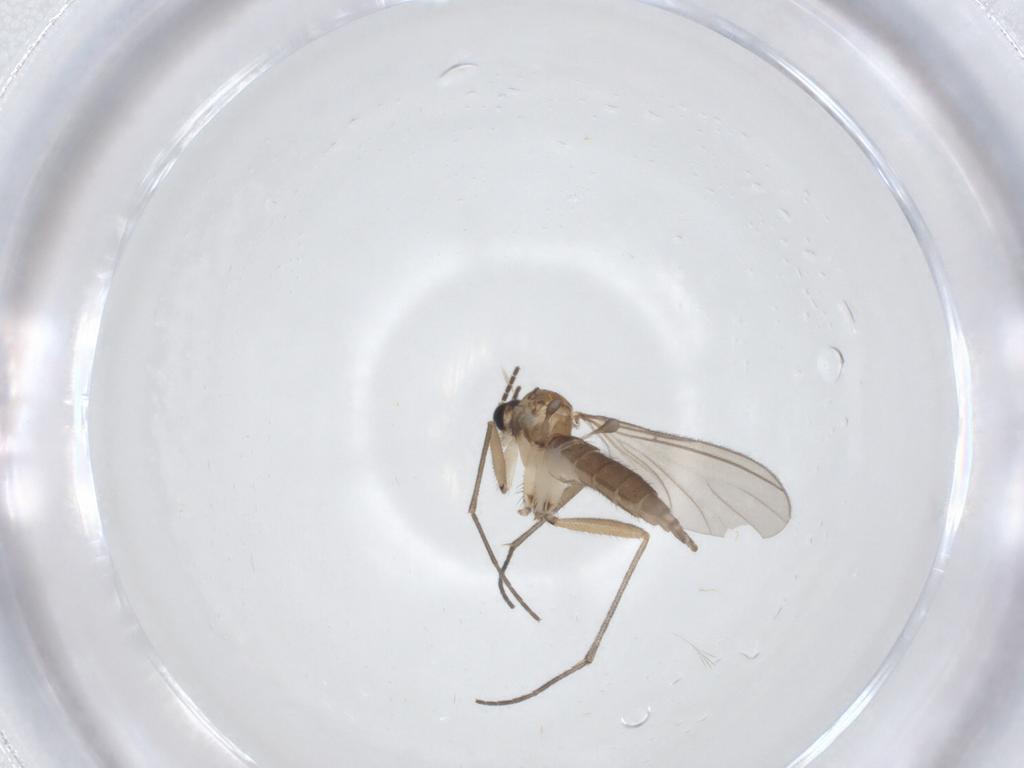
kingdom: Animalia
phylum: Arthropoda
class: Insecta
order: Diptera
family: Sciaridae
